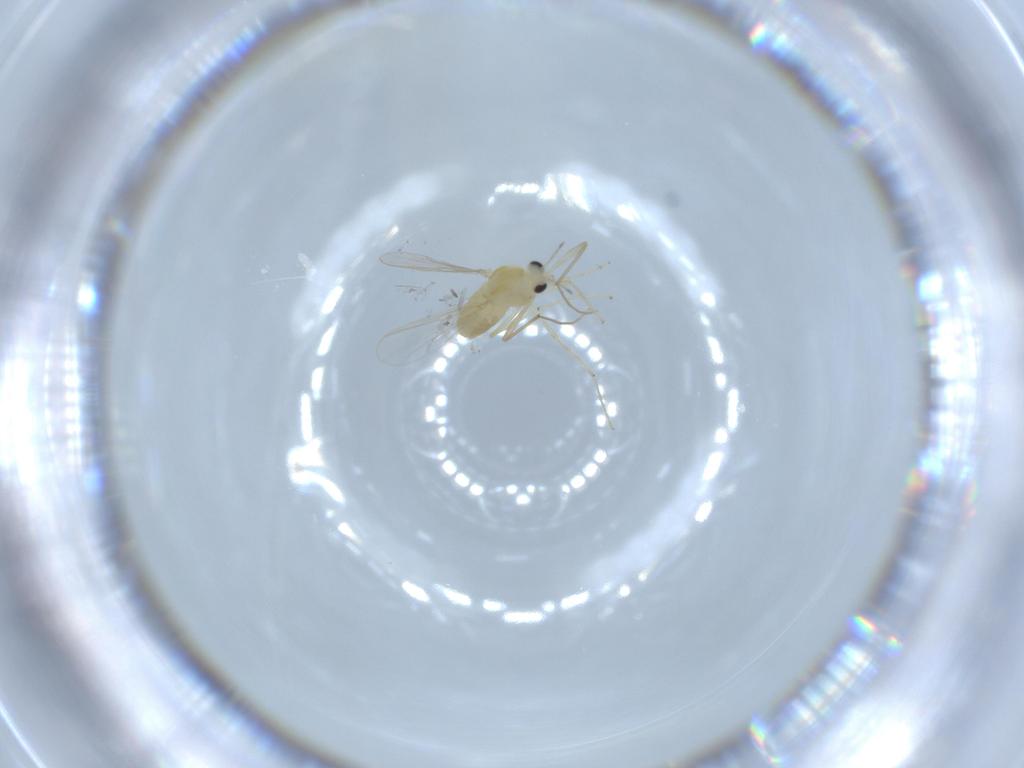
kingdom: Animalia
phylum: Arthropoda
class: Insecta
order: Diptera
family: Chironomidae
